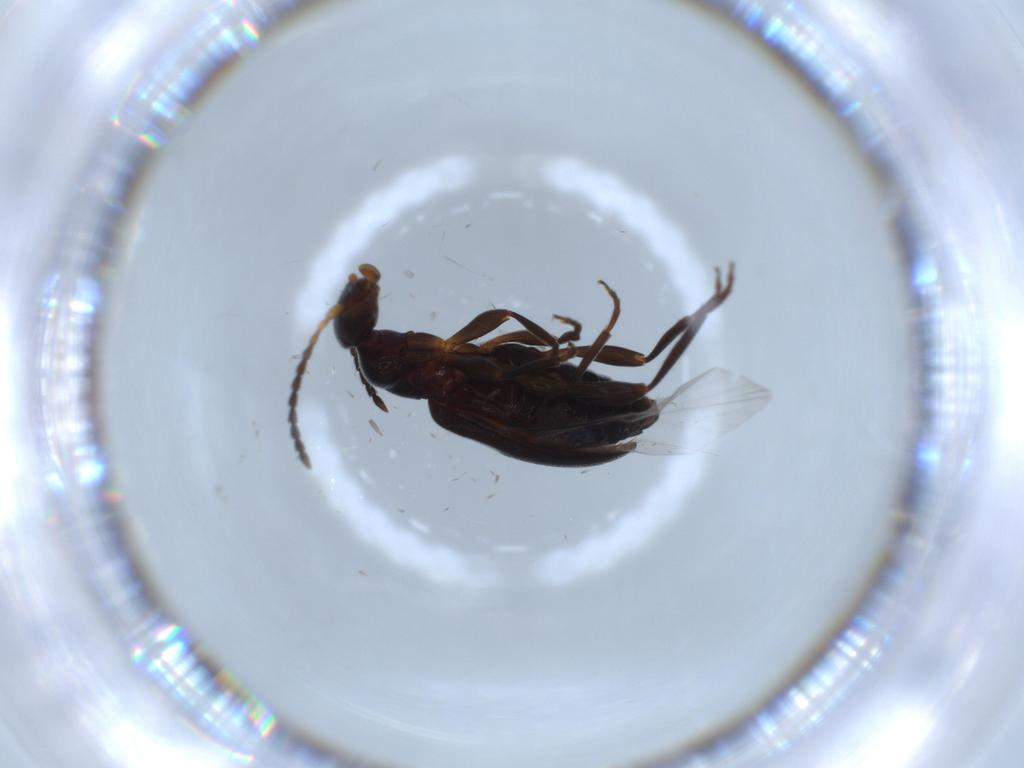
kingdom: Animalia
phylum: Arthropoda
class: Insecta
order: Coleoptera
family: Anthicidae
